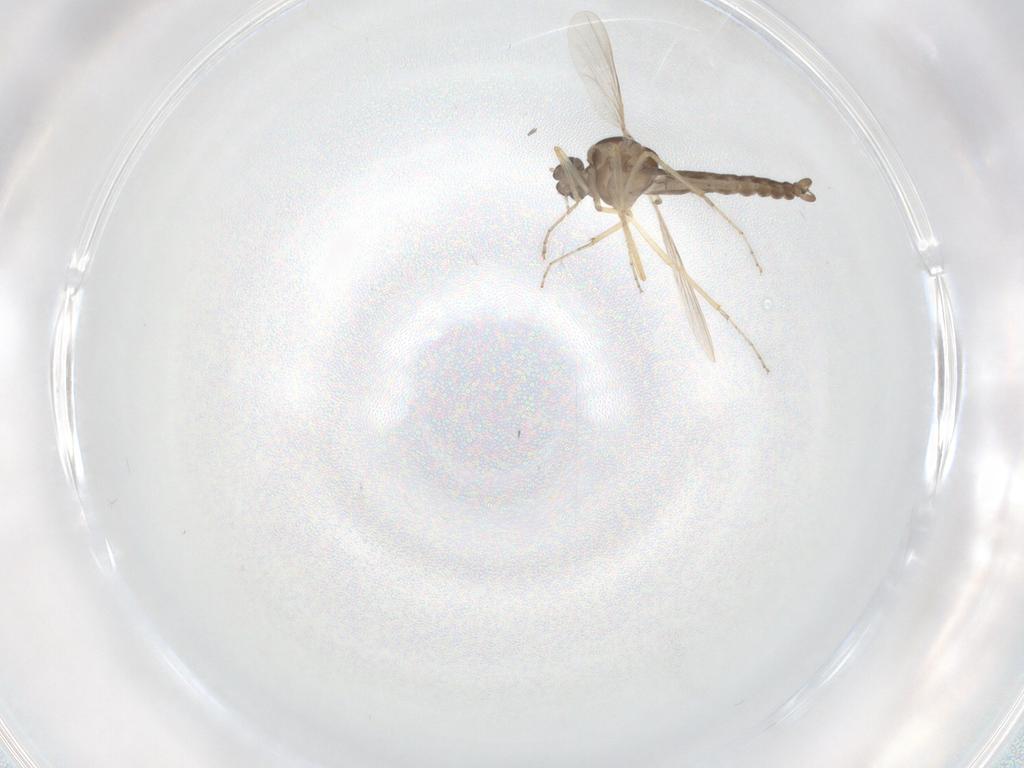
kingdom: Animalia
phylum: Arthropoda
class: Insecta
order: Diptera
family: Ceratopogonidae
